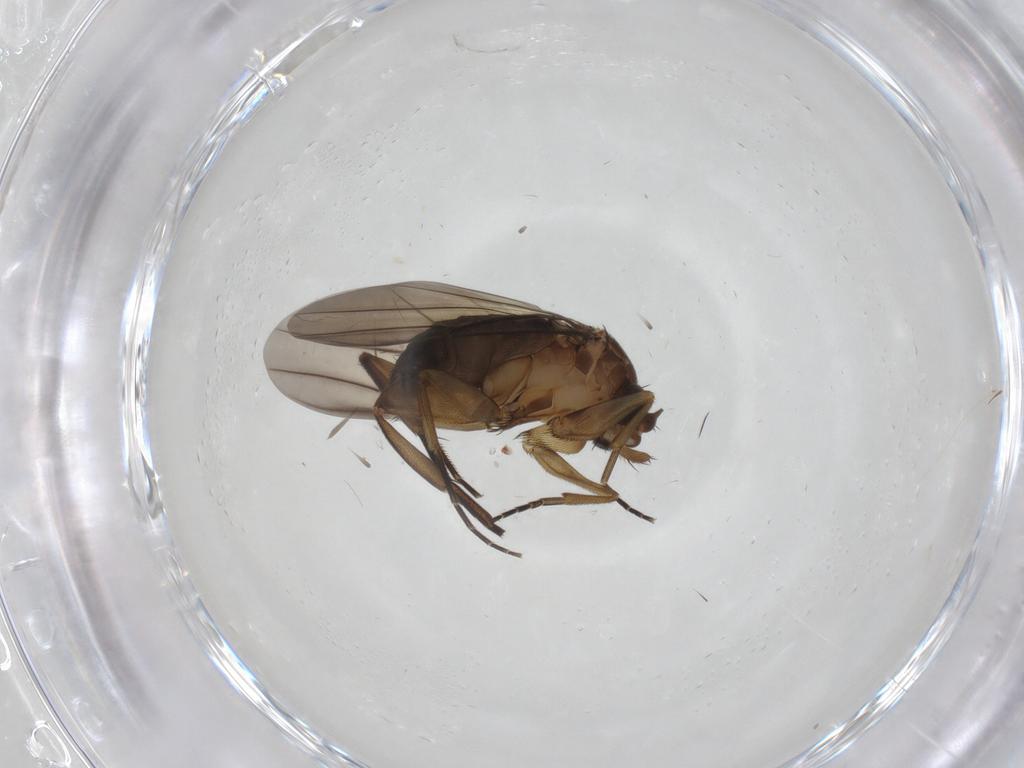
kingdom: Animalia
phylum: Arthropoda
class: Insecta
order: Diptera
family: Phoridae
